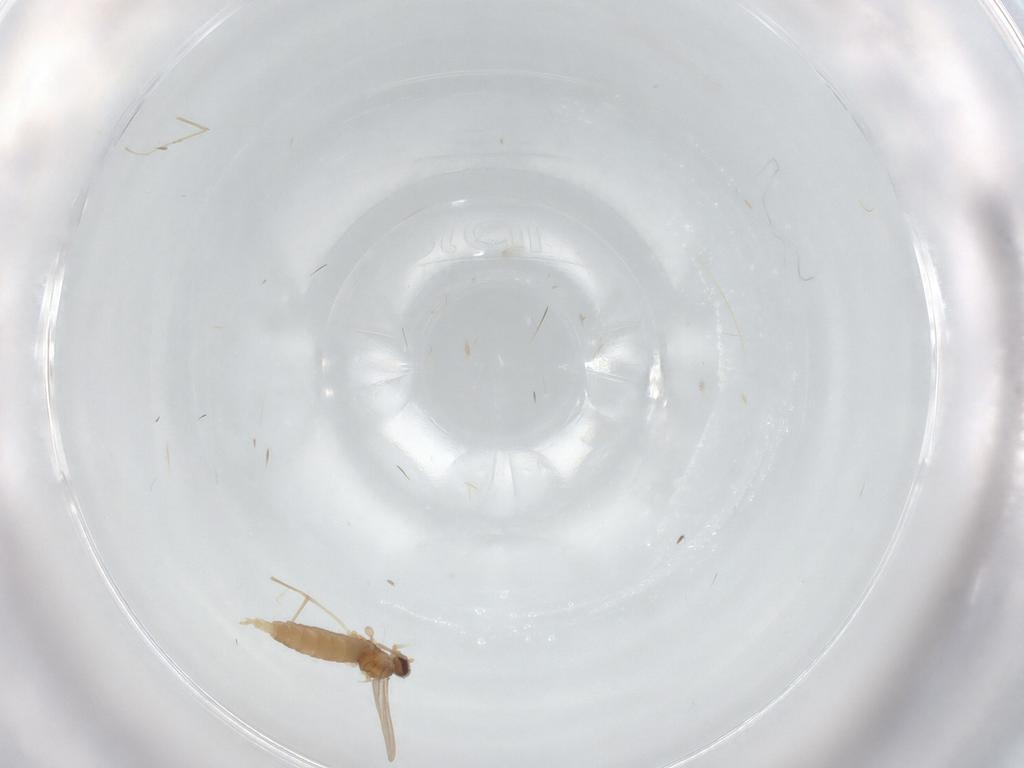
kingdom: Animalia
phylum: Arthropoda
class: Insecta
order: Diptera
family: Cecidomyiidae
